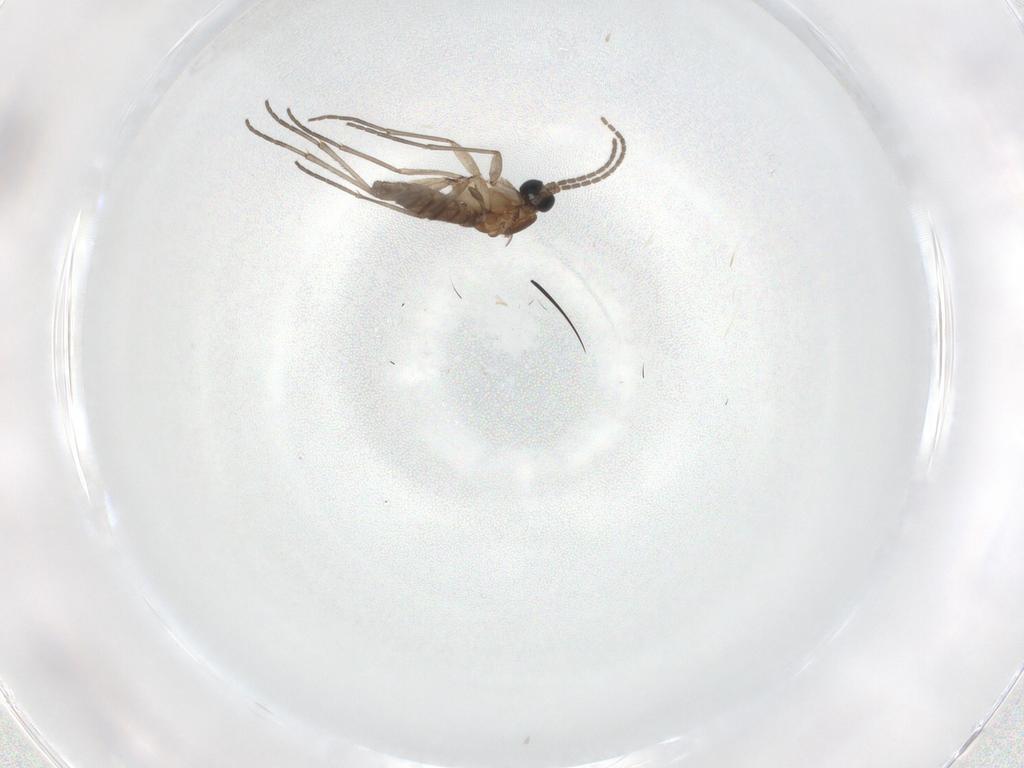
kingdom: Animalia
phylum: Arthropoda
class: Insecta
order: Diptera
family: Sciaridae
